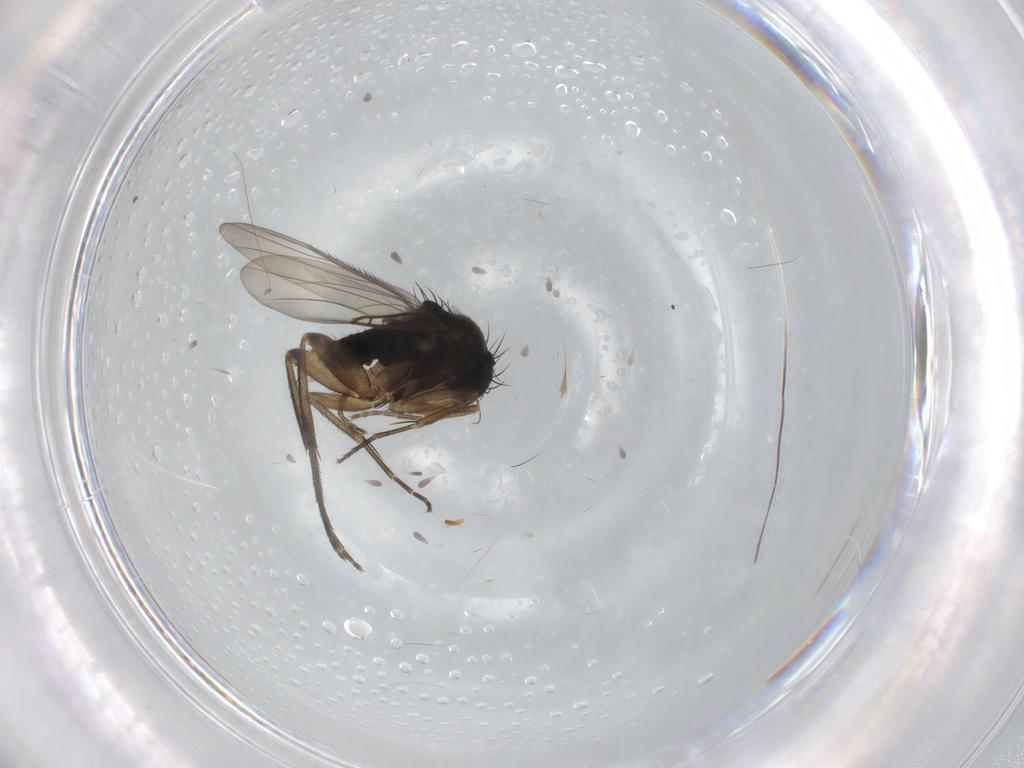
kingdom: Animalia
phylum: Arthropoda
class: Insecta
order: Diptera
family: Phoridae
